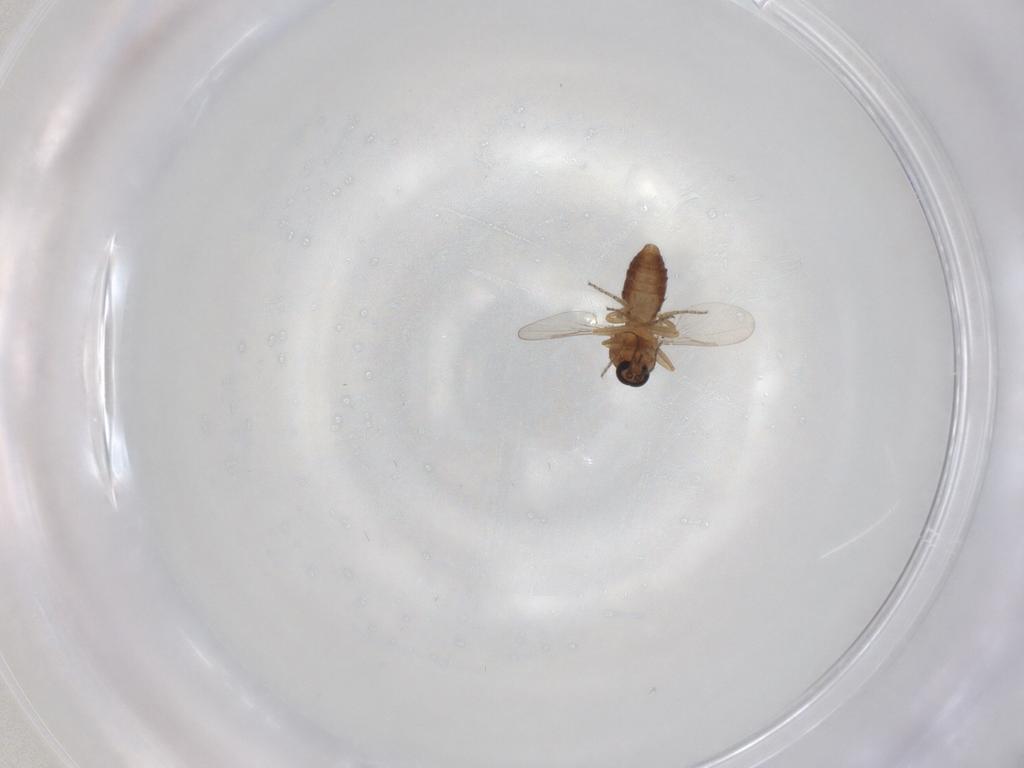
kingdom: Animalia
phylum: Arthropoda
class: Insecta
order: Diptera
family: Ceratopogonidae
